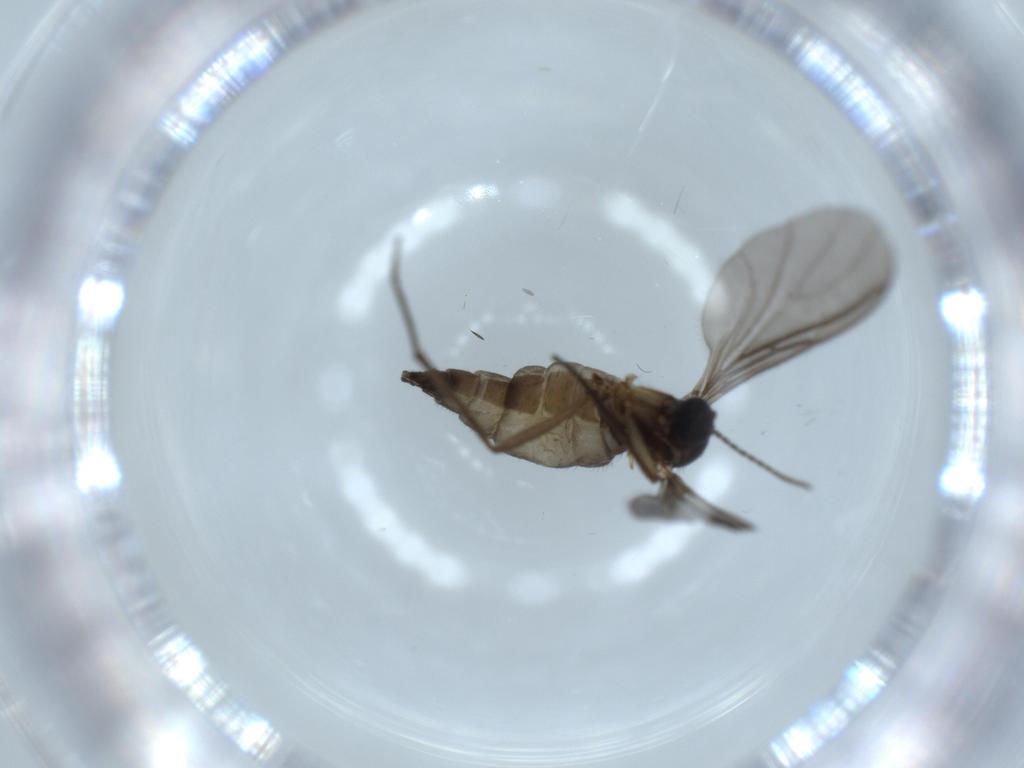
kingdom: Animalia
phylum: Arthropoda
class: Insecta
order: Diptera
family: Sciaridae
